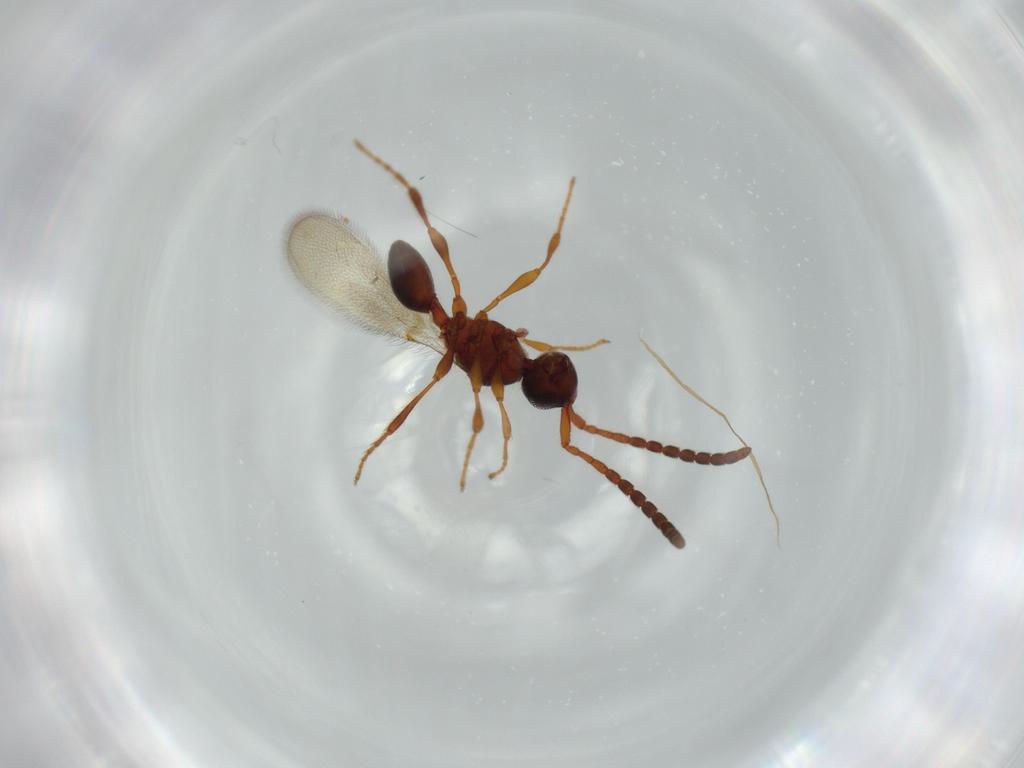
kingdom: Animalia
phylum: Arthropoda
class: Insecta
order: Hymenoptera
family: Diapriidae
